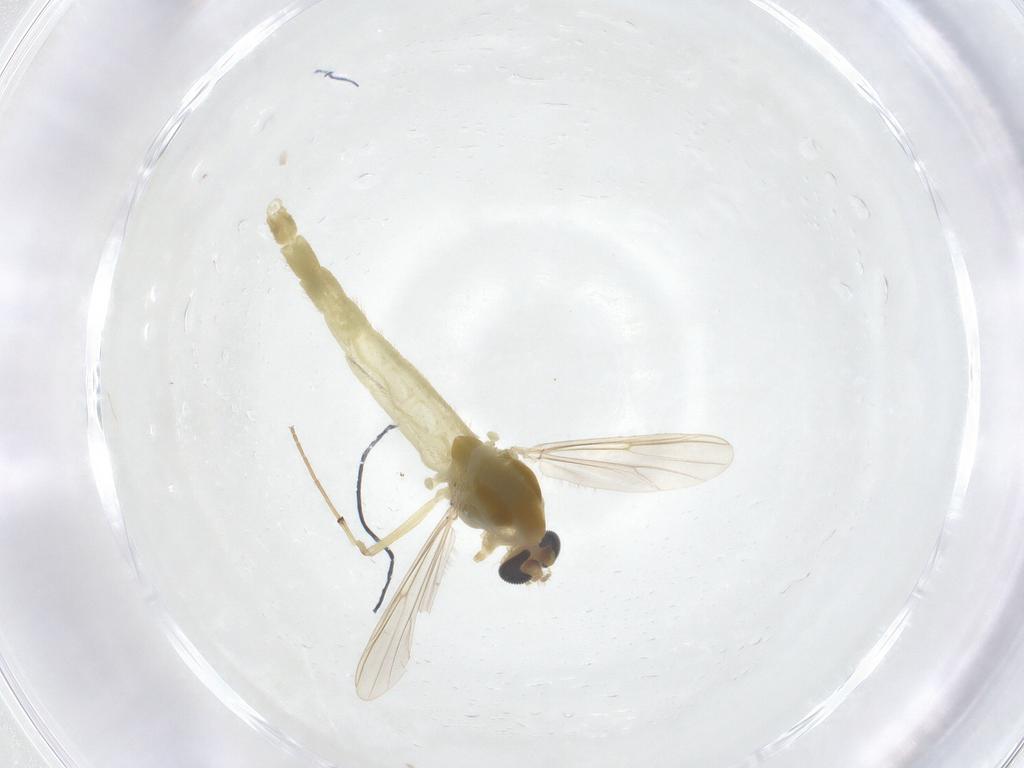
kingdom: Animalia
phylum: Arthropoda
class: Insecta
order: Diptera
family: Chironomidae
